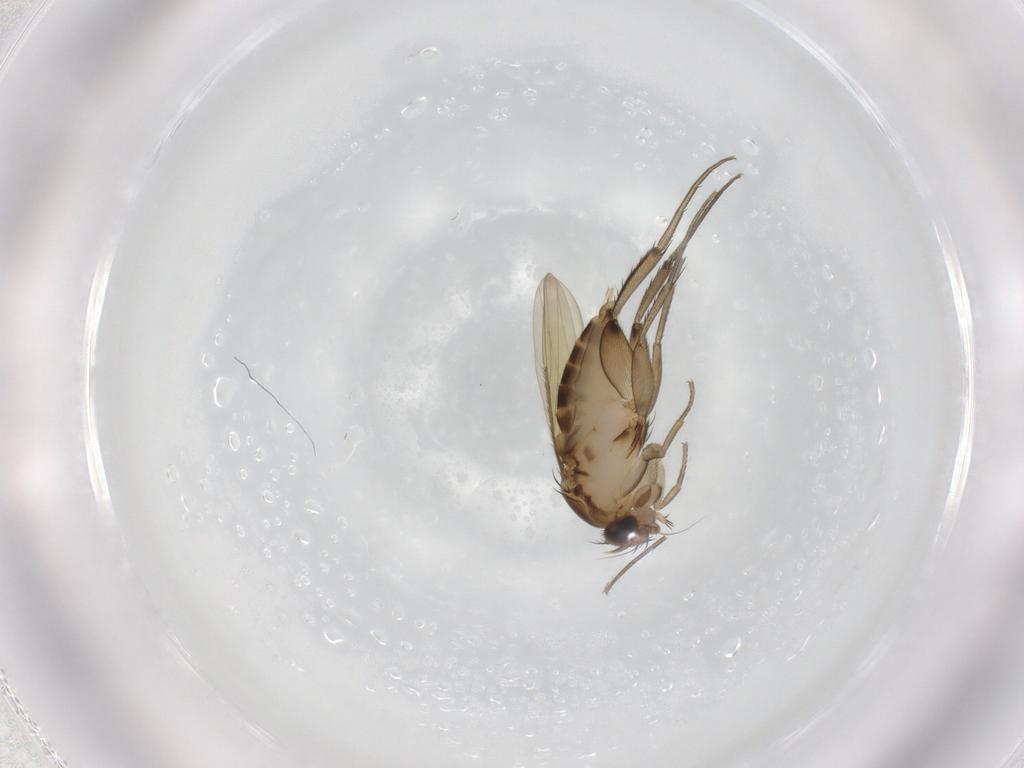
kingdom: Animalia
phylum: Arthropoda
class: Insecta
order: Diptera
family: Phoridae
